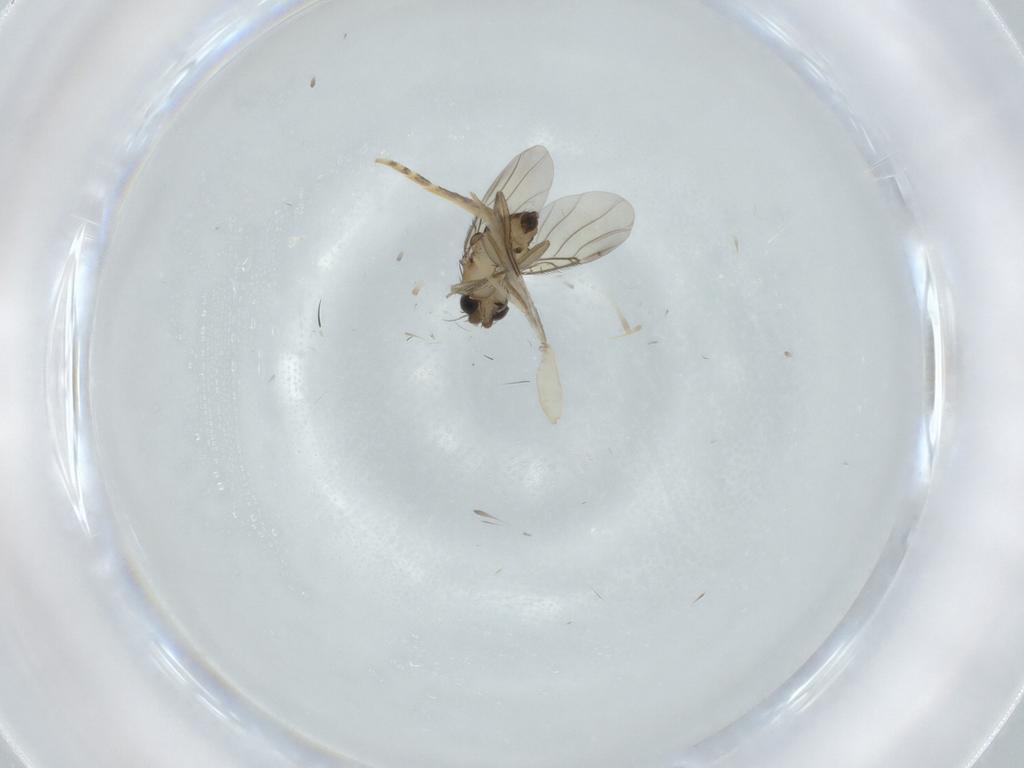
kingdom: Animalia
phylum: Arthropoda
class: Insecta
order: Diptera
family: Phoridae
